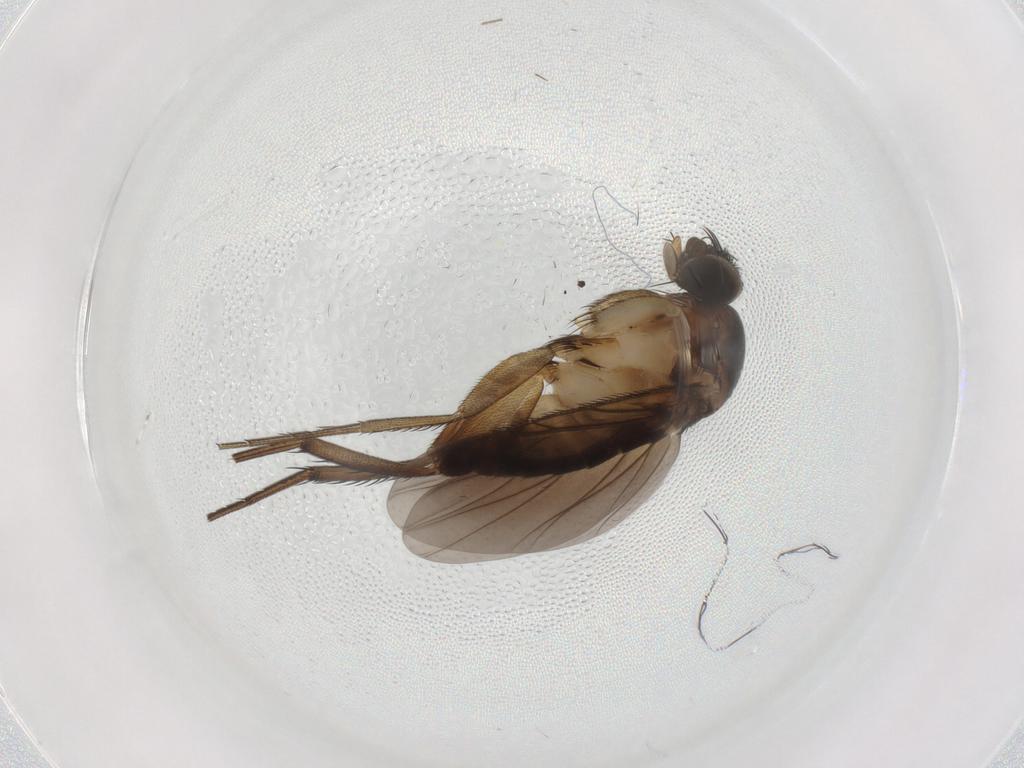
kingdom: Animalia
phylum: Arthropoda
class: Insecta
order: Diptera
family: Phoridae
